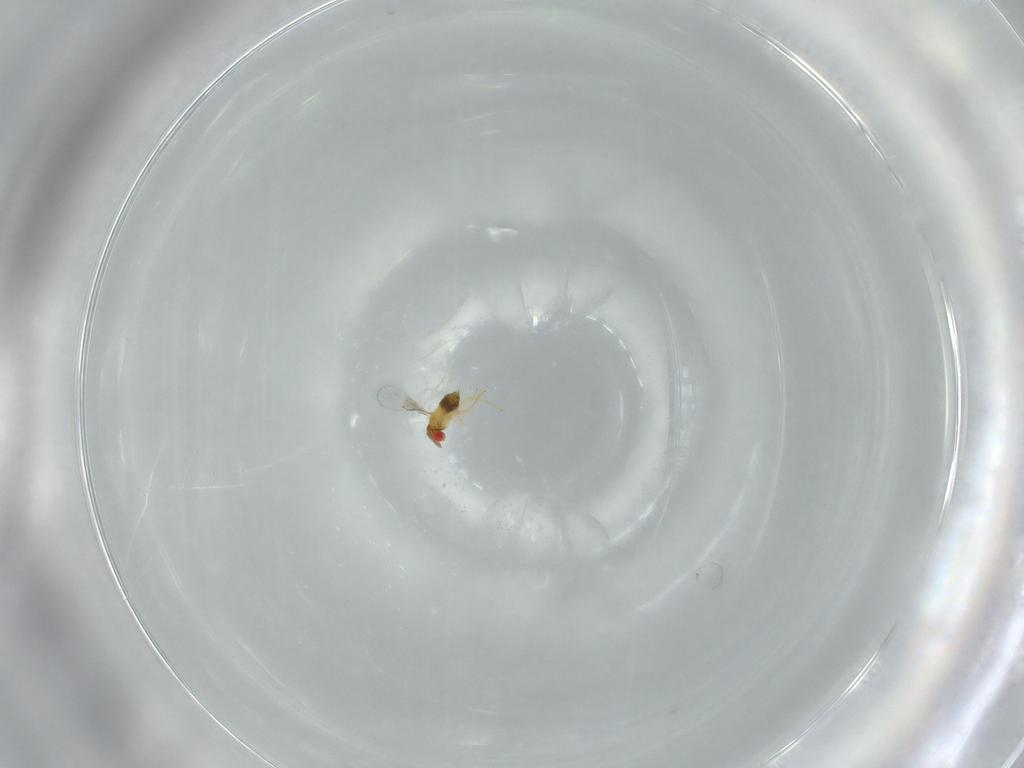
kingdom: Animalia
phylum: Arthropoda
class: Insecta
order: Hymenoptera
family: Trichogrammatidae
